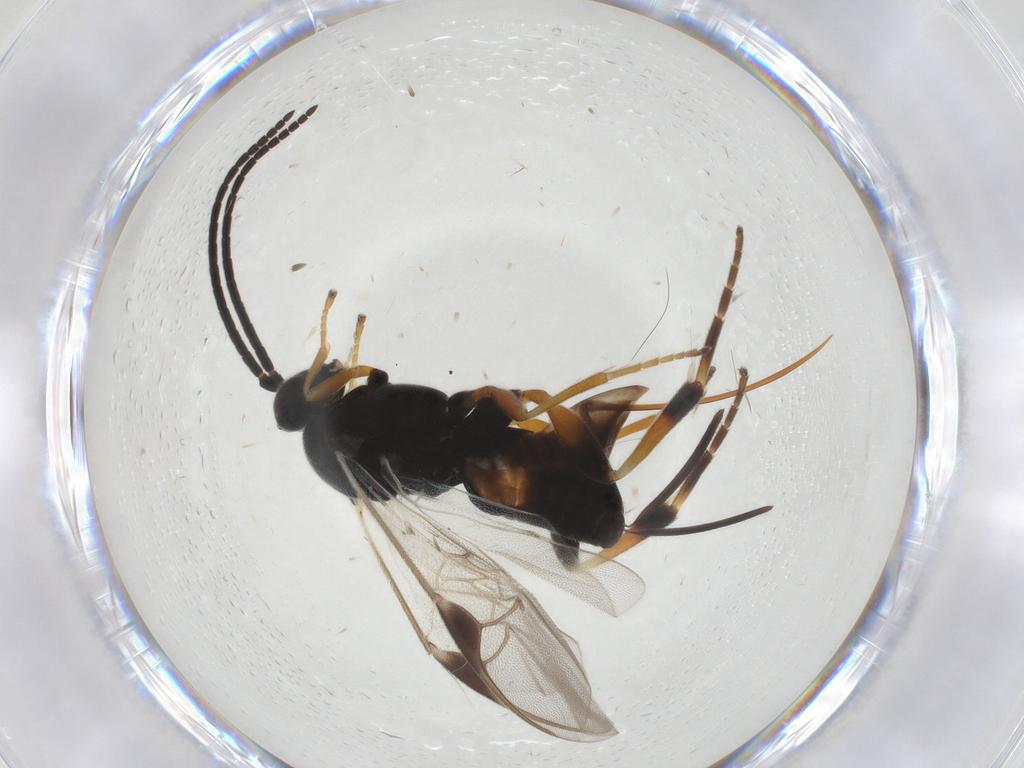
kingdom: Animalia
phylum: Arthropoda
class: Insecta
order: Hymenoptera
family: Braconidae
